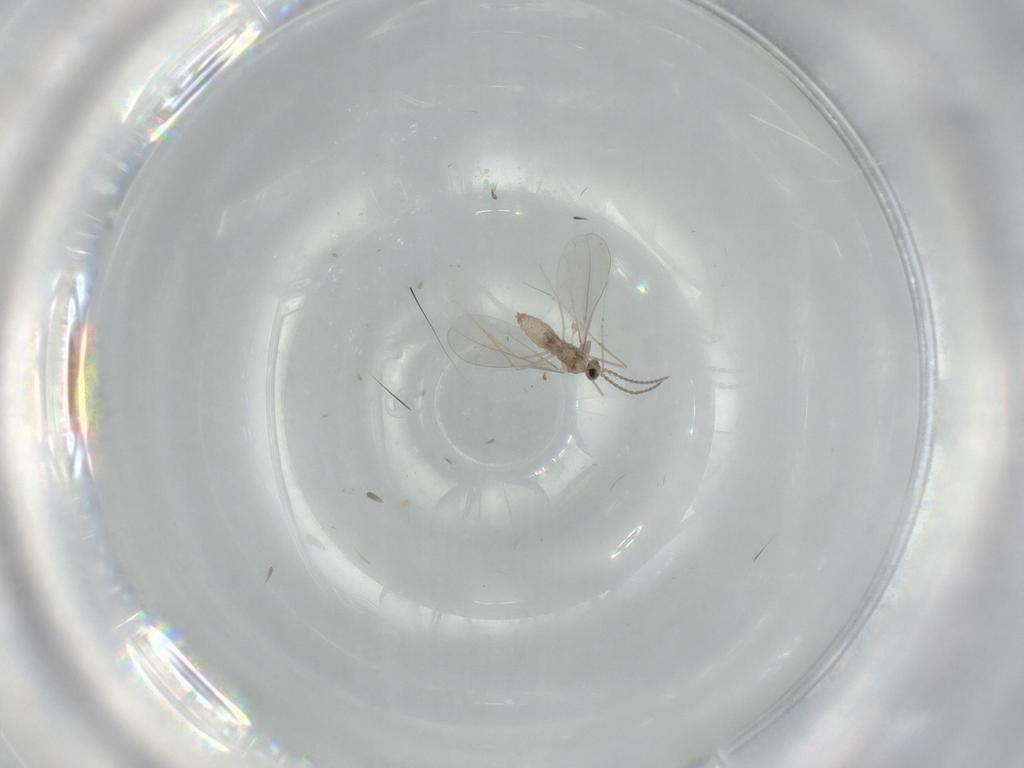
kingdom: Animalia
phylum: Arthropoda
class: Insecta
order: Diptera
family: Cecidomyiidae
